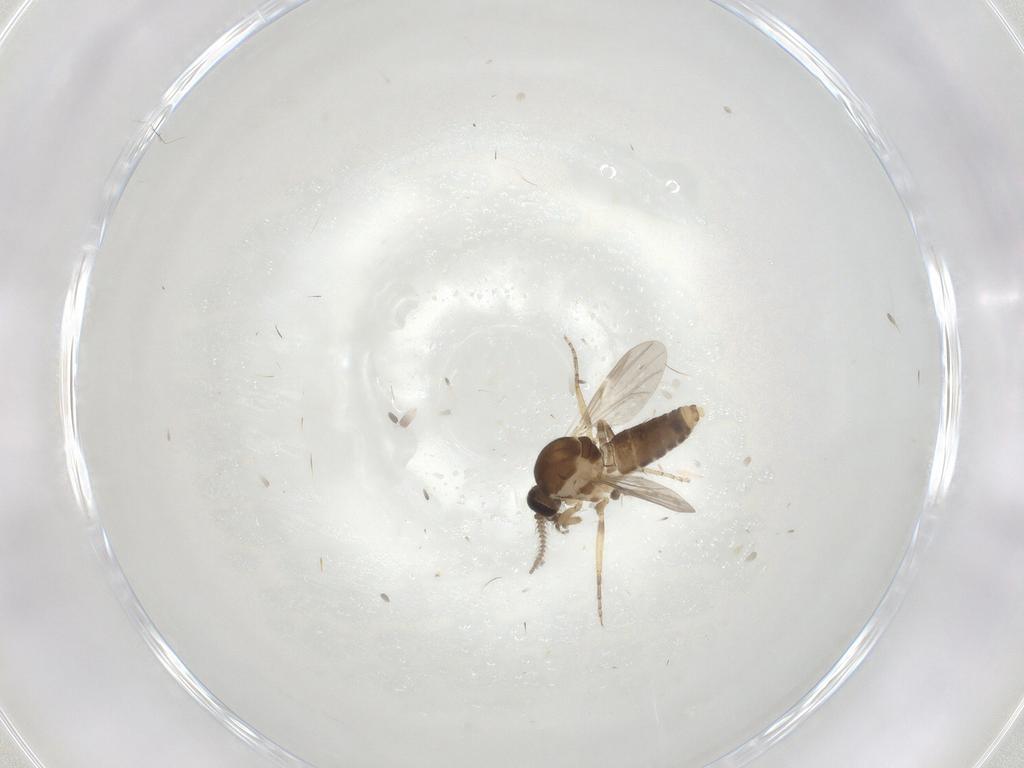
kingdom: Animalia
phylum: Arthropoda
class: Insecta
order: Diptera
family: Ceratopogonidae
